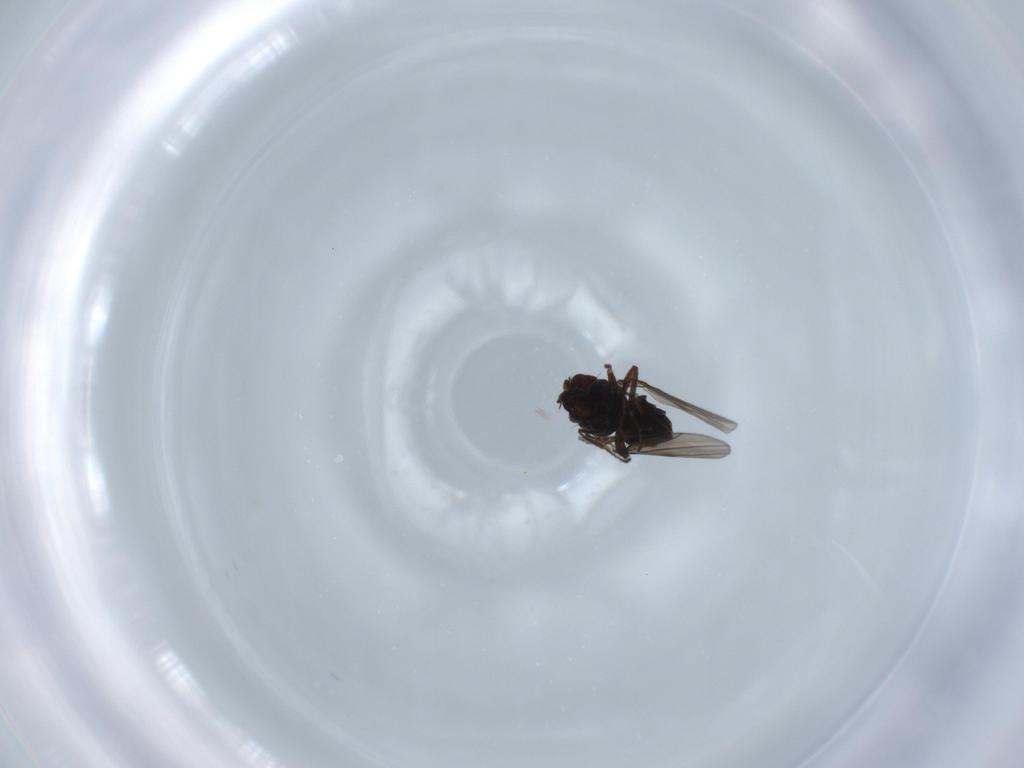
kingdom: Animalia
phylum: Arthropoda
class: Insecta
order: Diptera
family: Ephydridae
